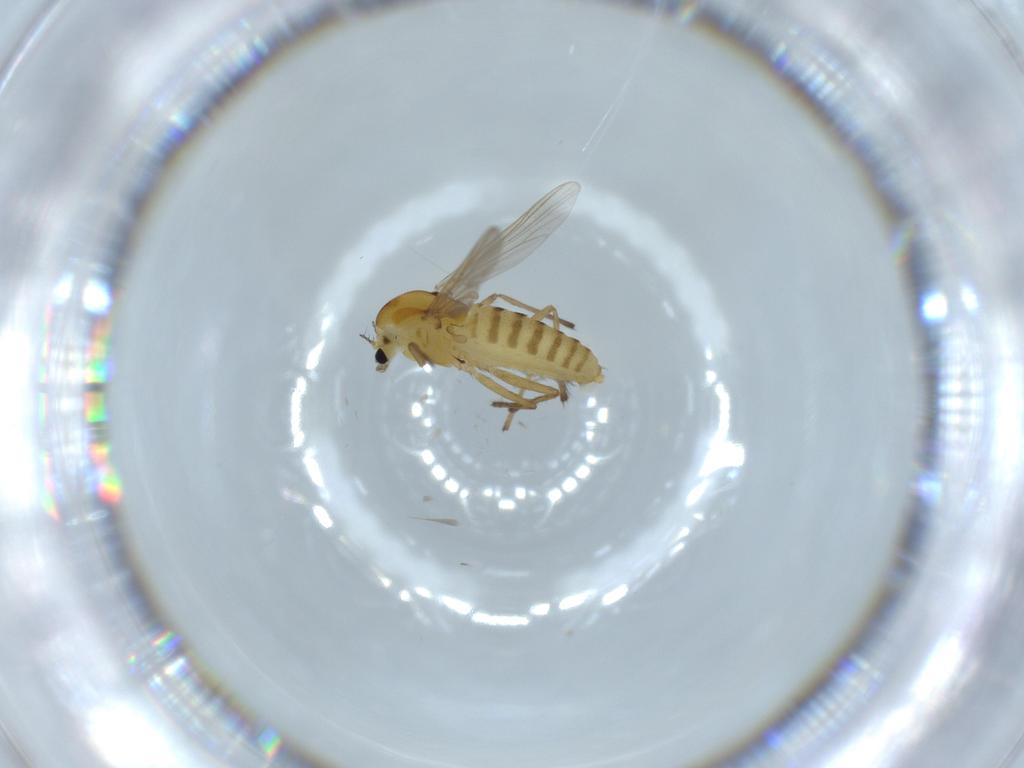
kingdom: Animalia
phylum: Arthropoda
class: Insecta
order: Diptera
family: Chironomidae
